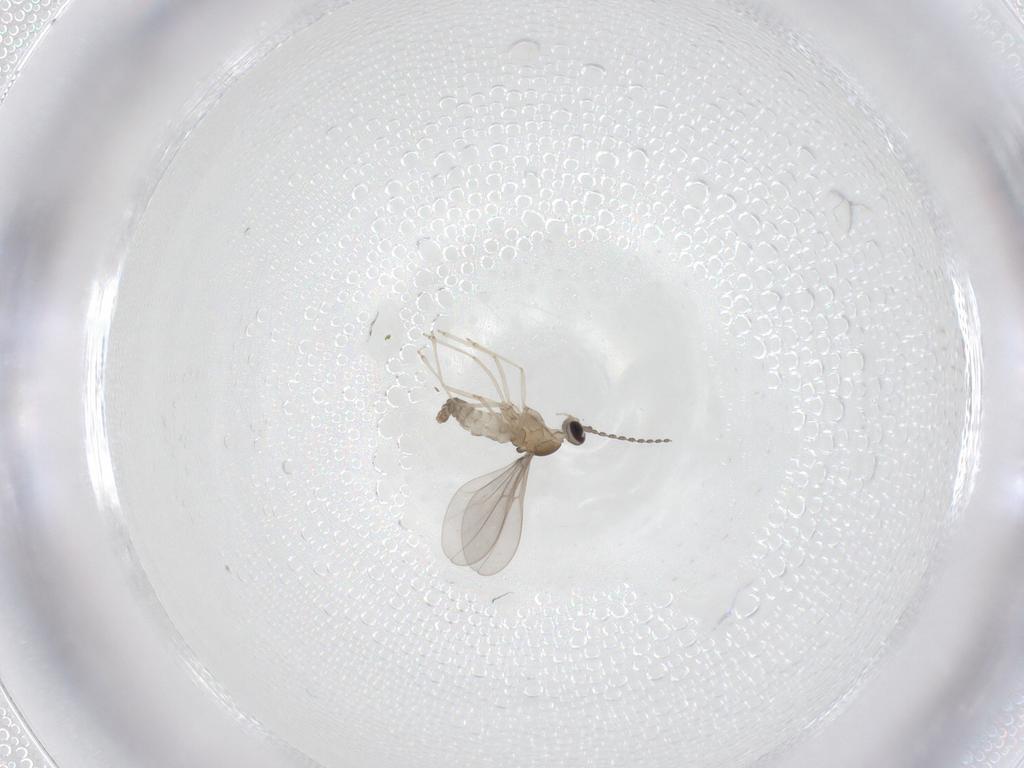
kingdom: Animalia
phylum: Arthropoda
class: Insecta
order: Diptera
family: Cecidomyiidae
